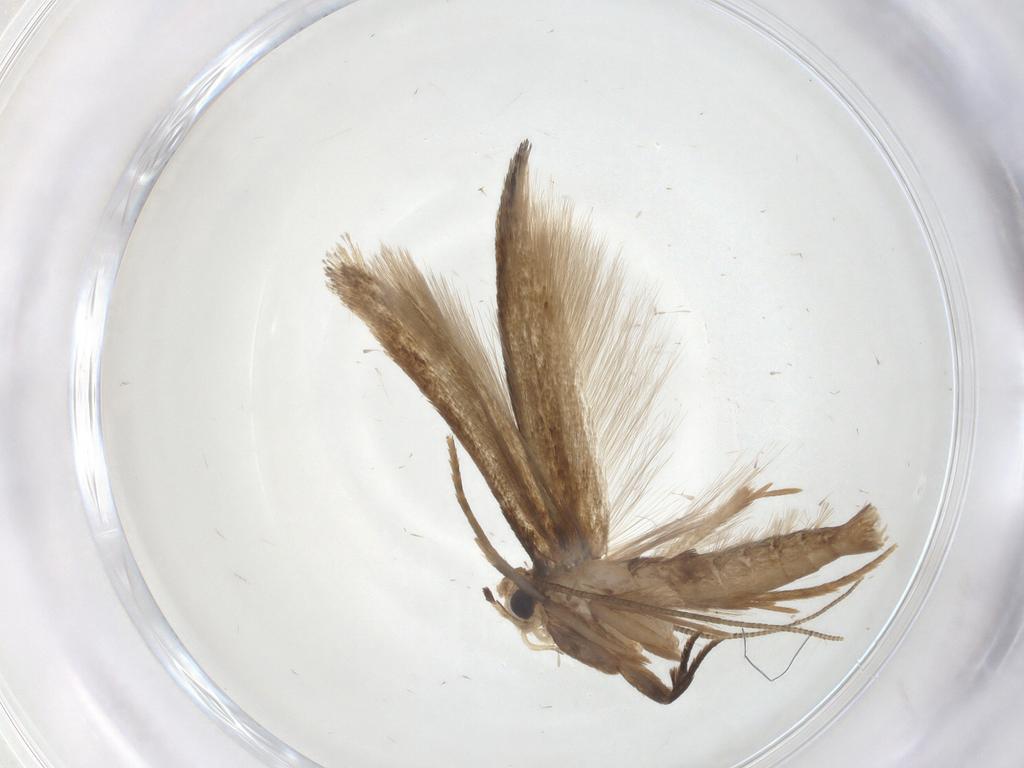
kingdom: Animalia
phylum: Arthropoda
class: Insecta
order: Lepidoptera
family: Tineidae
